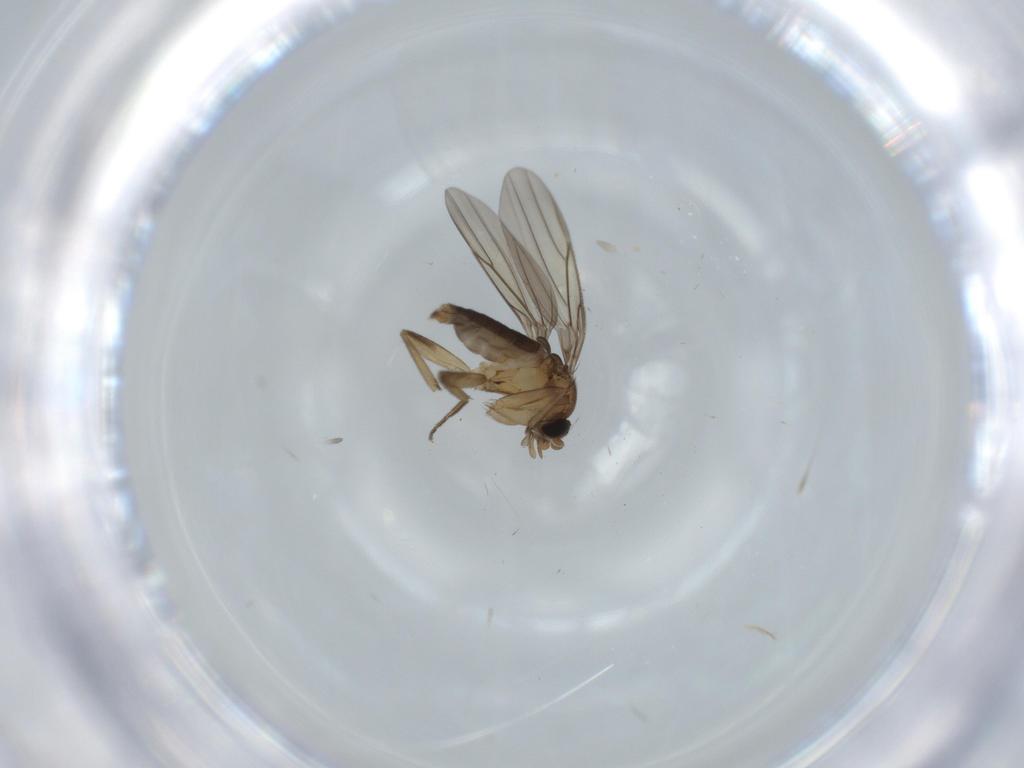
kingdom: Animalia
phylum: Arthropoda
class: Insecta
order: Diptera
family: Phoridae
